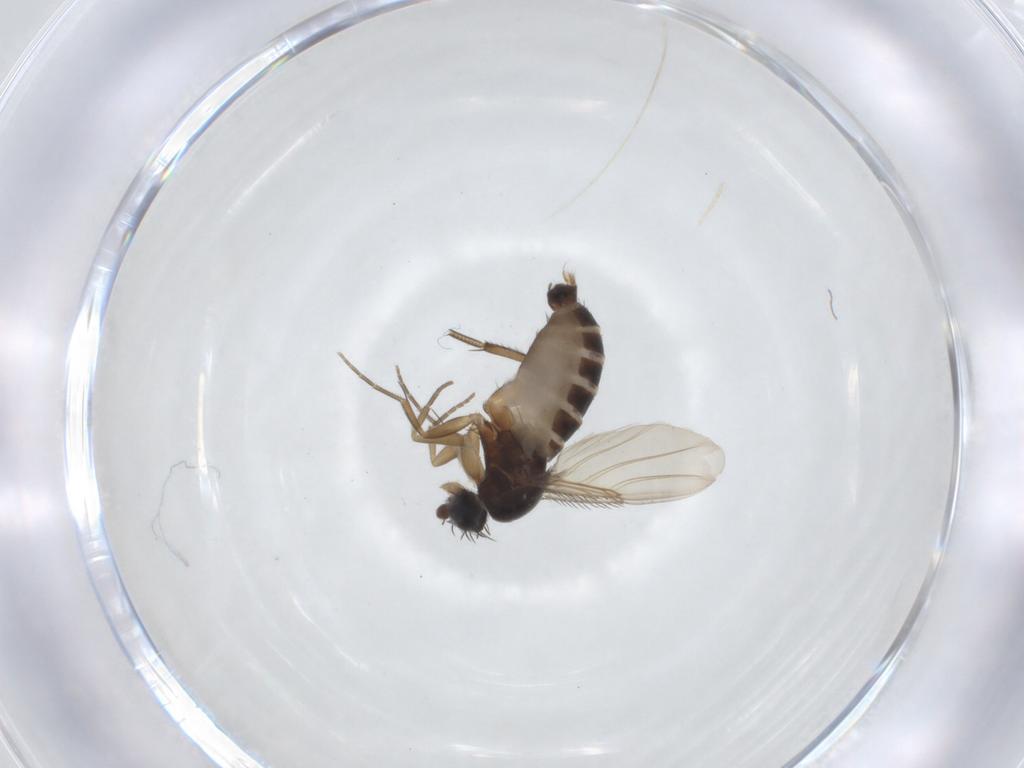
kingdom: Animalia
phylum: Arthropoda
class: Insecta
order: Diptera
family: Phoridae
